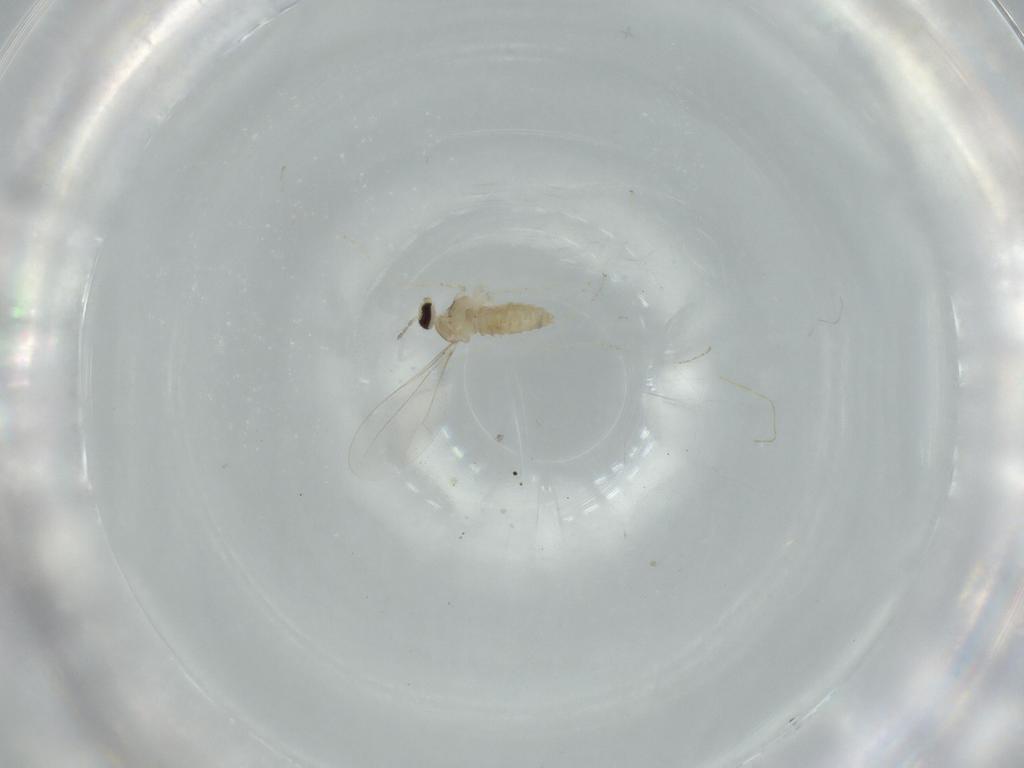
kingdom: Animalia
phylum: Arthropoda
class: Insecta
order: Diptera
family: Cecidomyiidae
